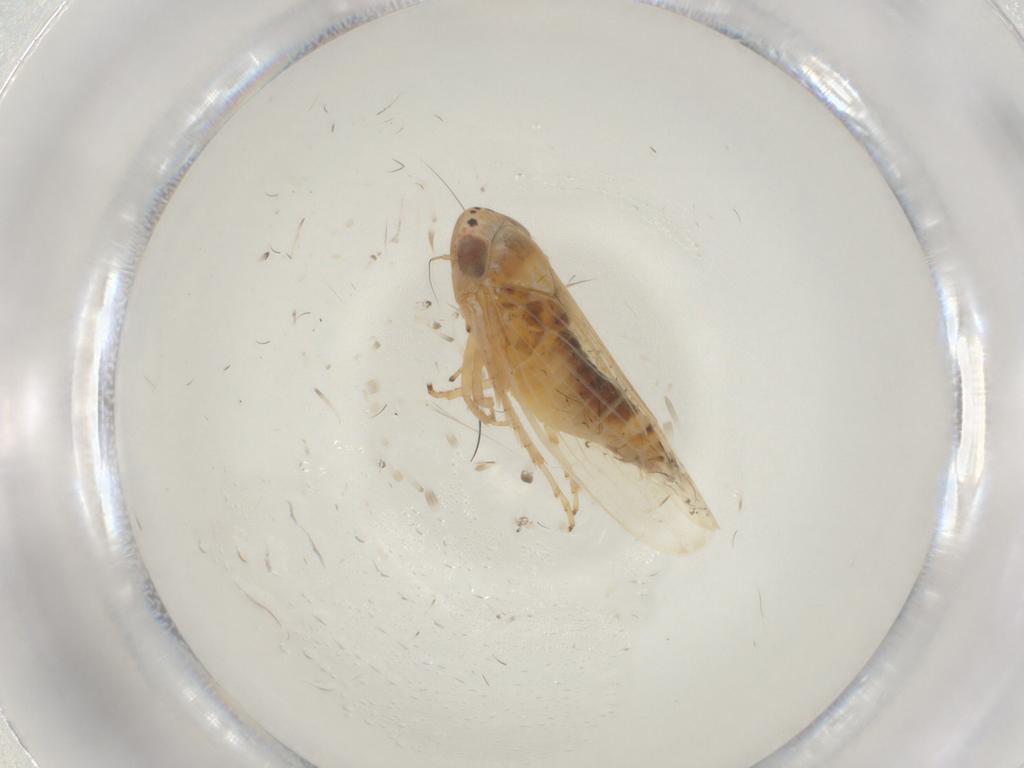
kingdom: Animalia
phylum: Arthropoda
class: Insecta
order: Hemiptera
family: Cicadellidae
